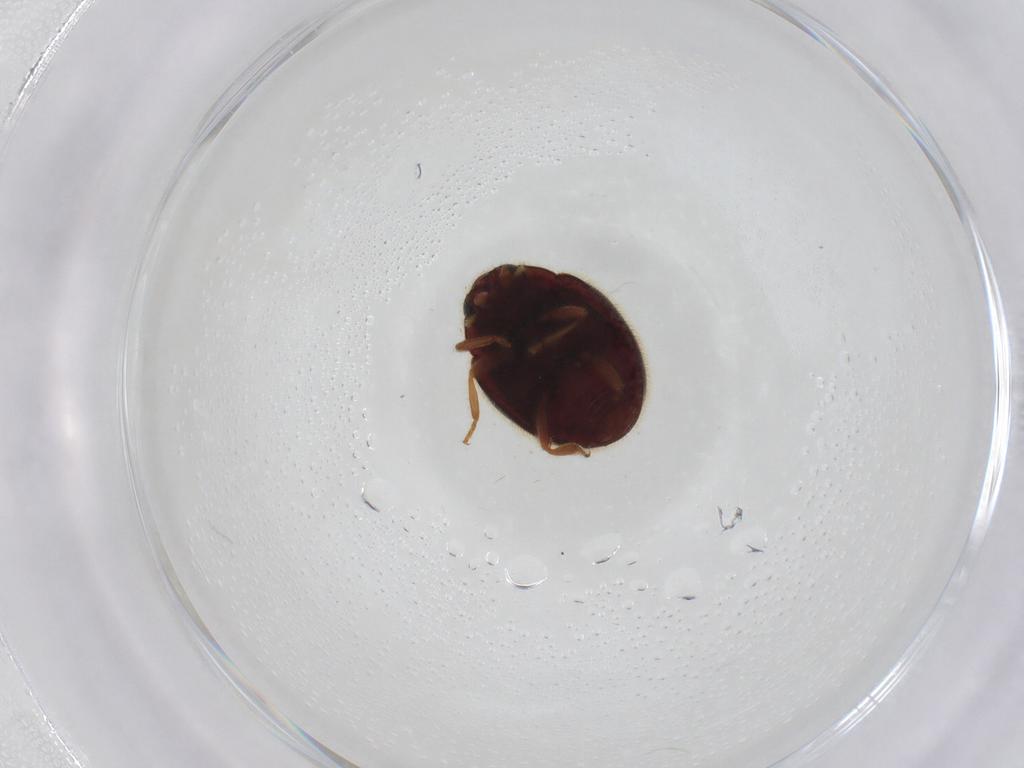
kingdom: Animalia
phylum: Arthropoda
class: Insecta
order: Coleoptera
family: Coccinellidae
